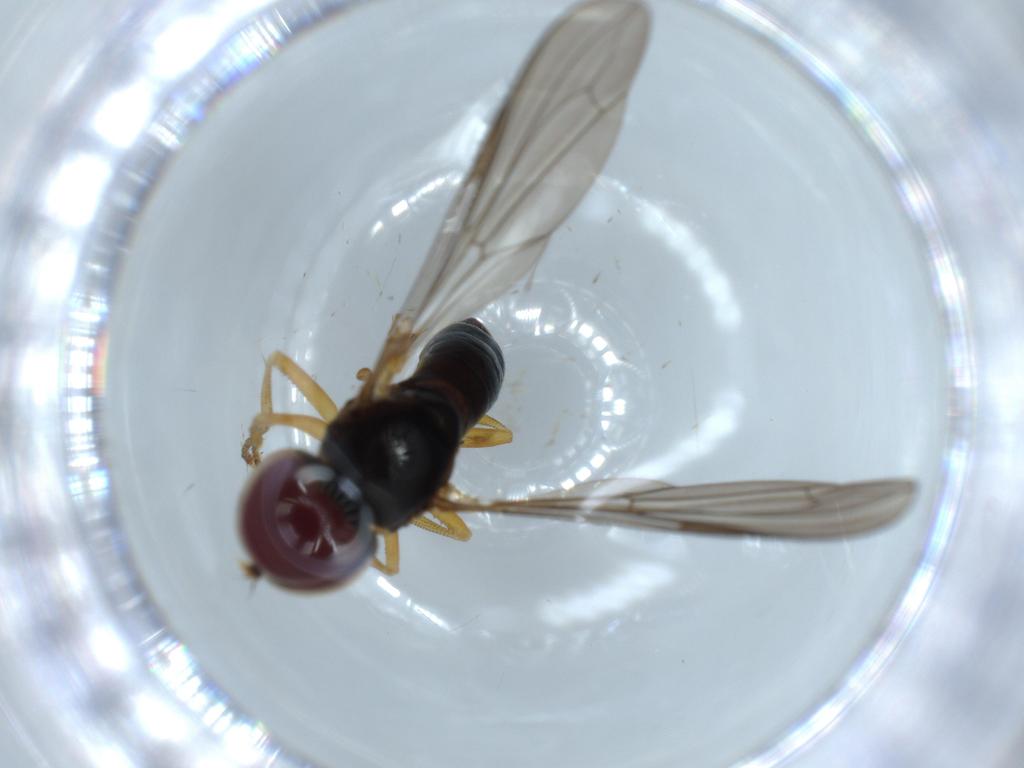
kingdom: Animalia
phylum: Arthropoda
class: Insecta
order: Diptera
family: Pipunculidae
